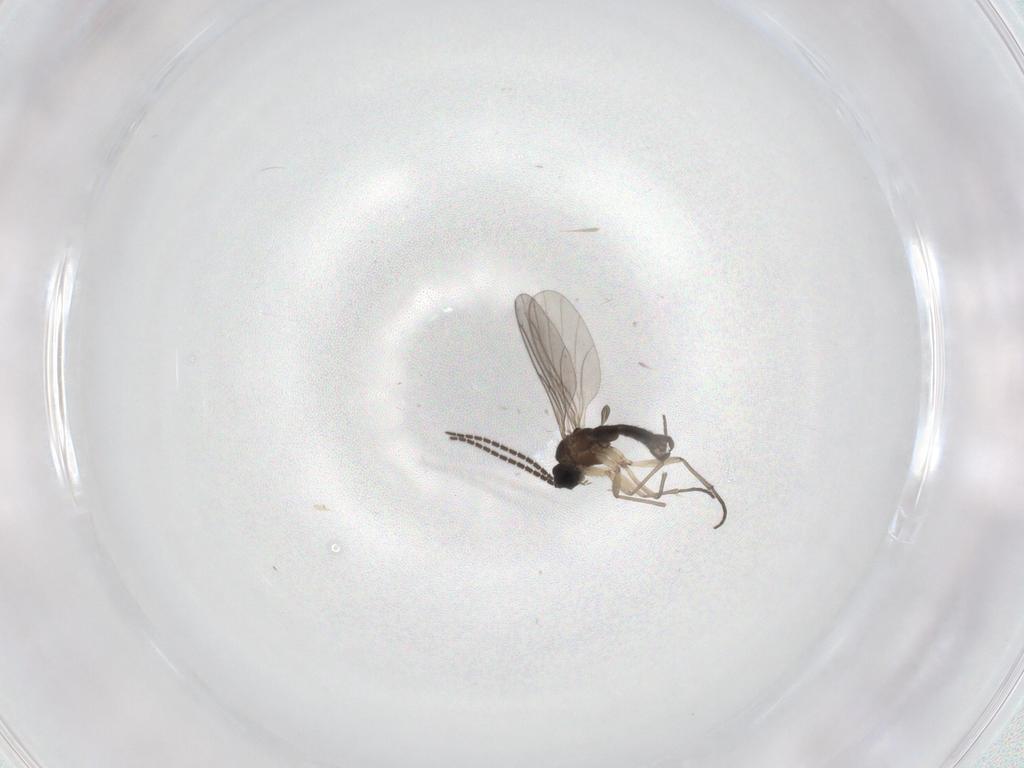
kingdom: Animalia
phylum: Arthropoda
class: Insecta
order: Diptera
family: Sciaridae
